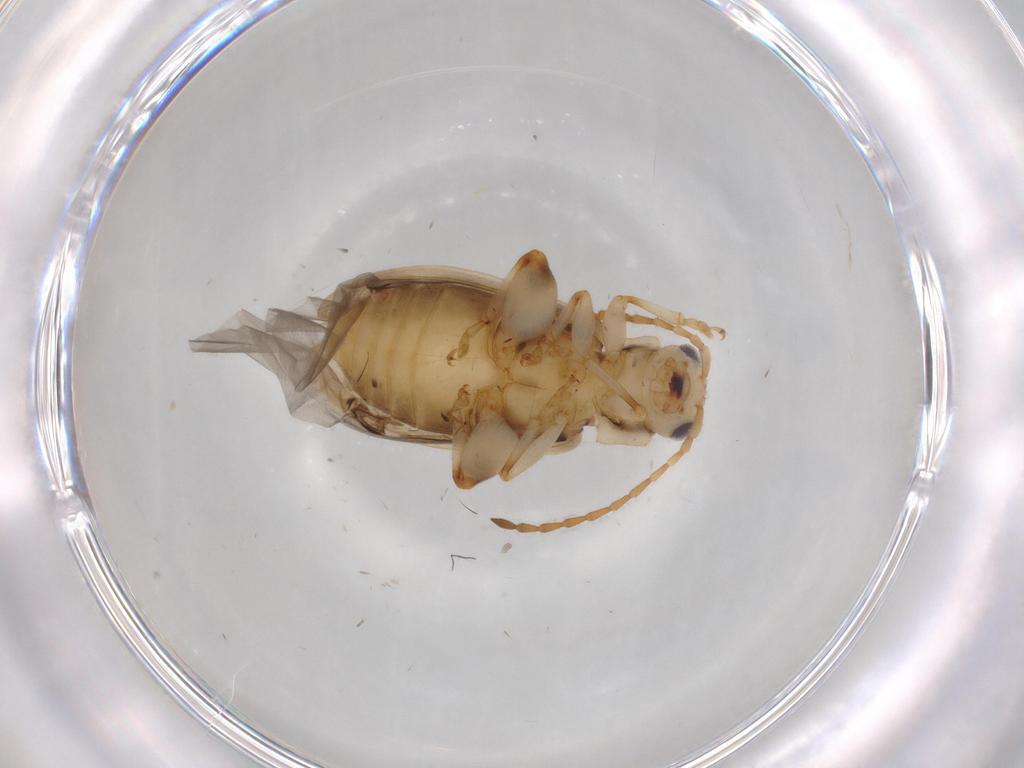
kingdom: Animalia
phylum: Arthropoda
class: Insecta
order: Coleoptera
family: Chrysomelidae
